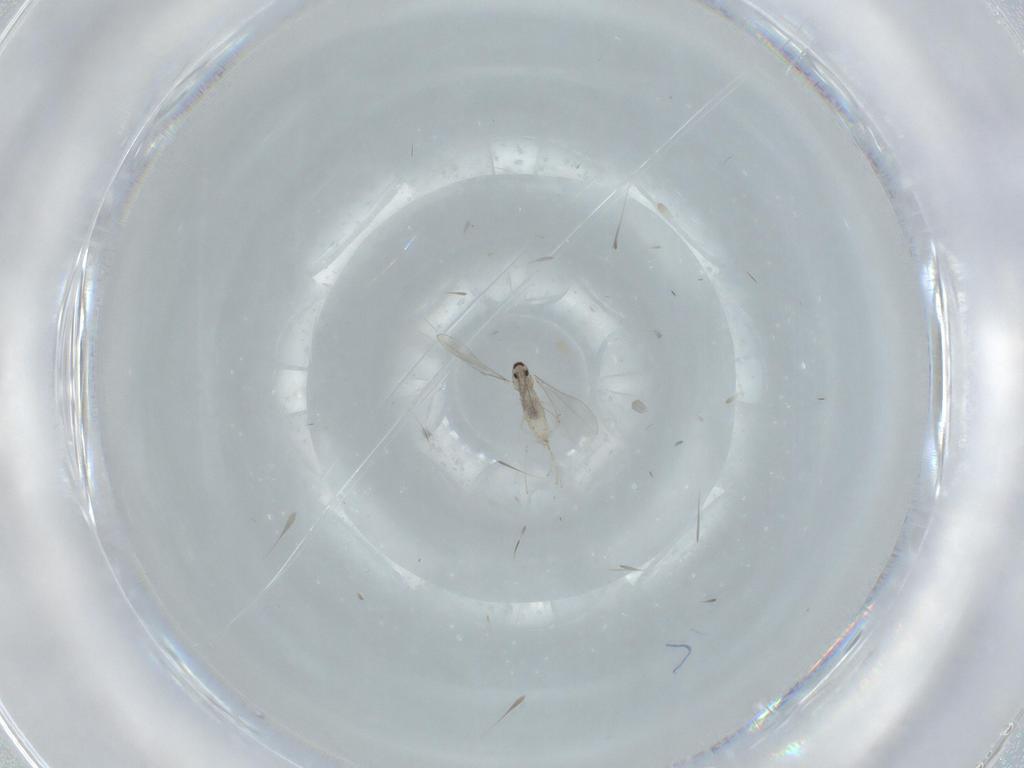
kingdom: Animalia
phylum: Arthropoda
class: Insecta
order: Diptera
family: Cecidomyiidae
